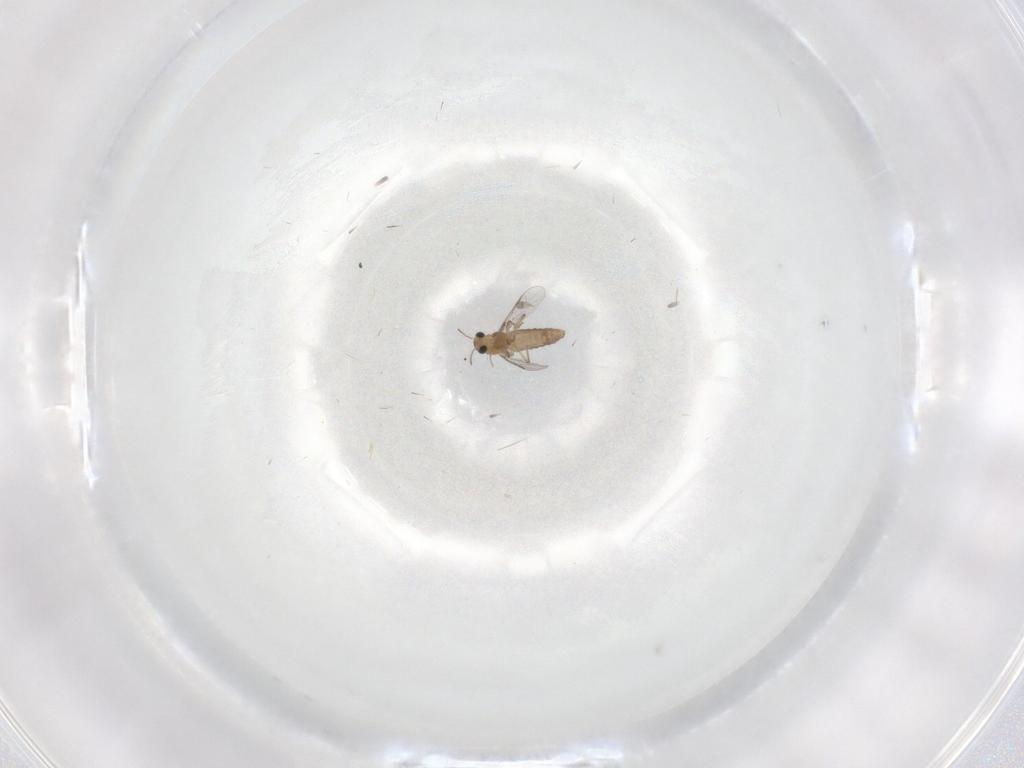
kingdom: Animalia
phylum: Arthropoda
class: Insecta
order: Diptera
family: Chironomidae
